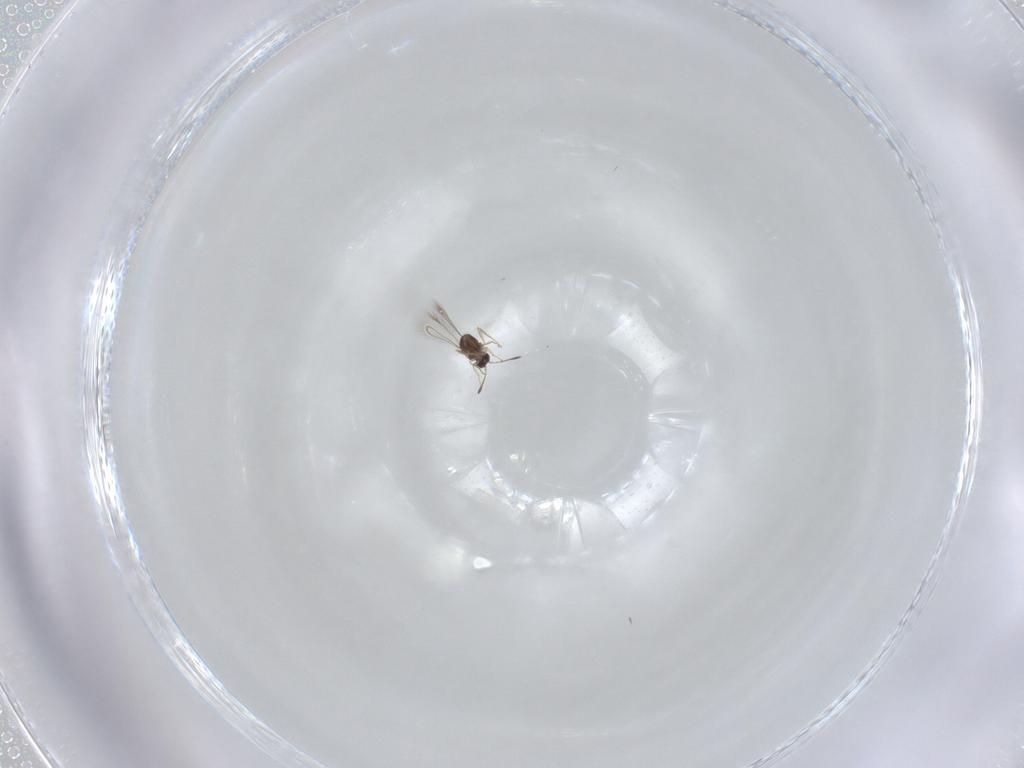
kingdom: Animalia
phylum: Arthropoda
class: Insecta
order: Hymenoptera
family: Mymaridae
